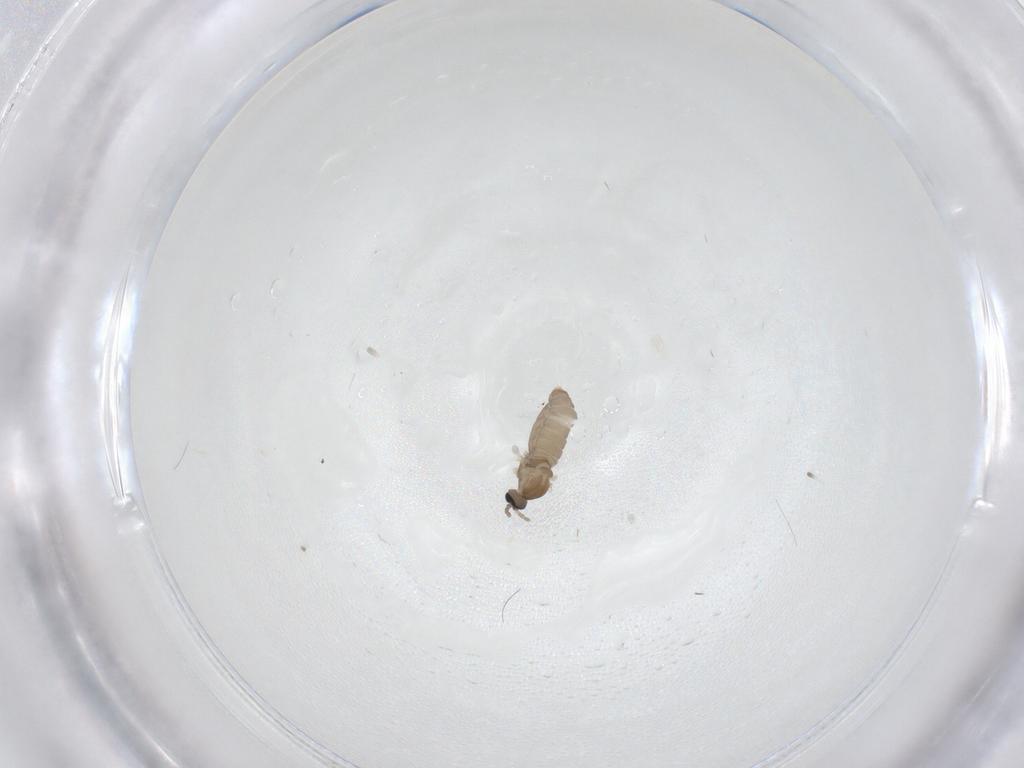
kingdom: Animalia
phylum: Arthropoda
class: Insecta
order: Diptera
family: Cecidomyiidae
